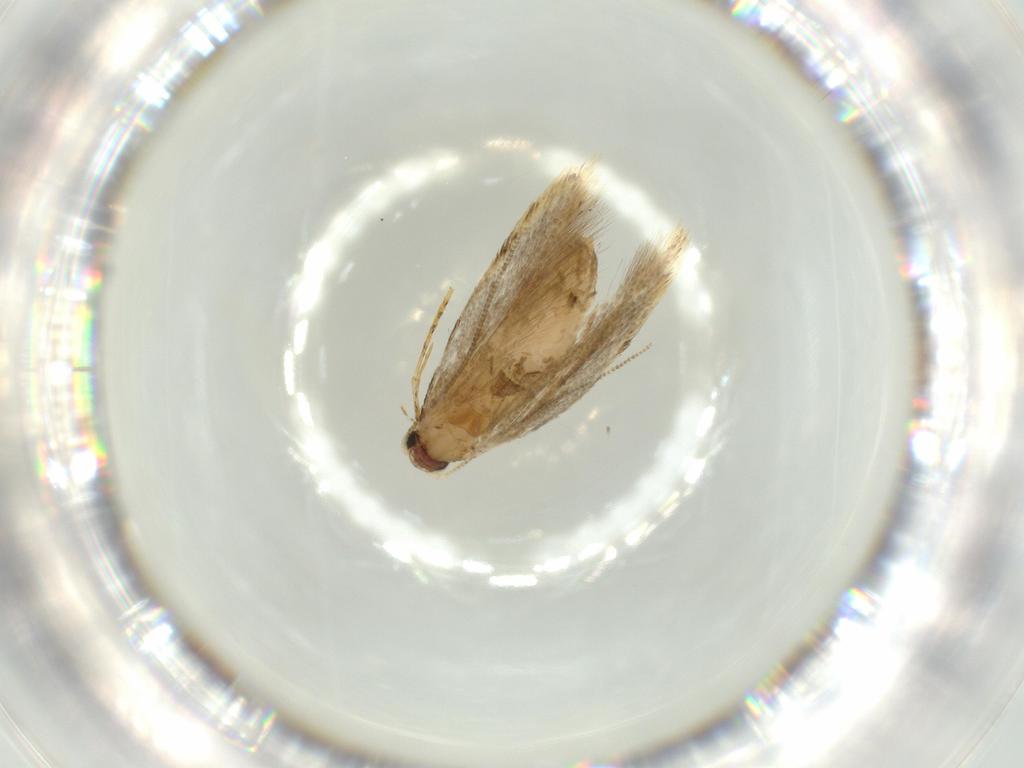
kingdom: Animalia
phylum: Arthropoda
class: Insecta
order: Lepidoptera
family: Tineidae
